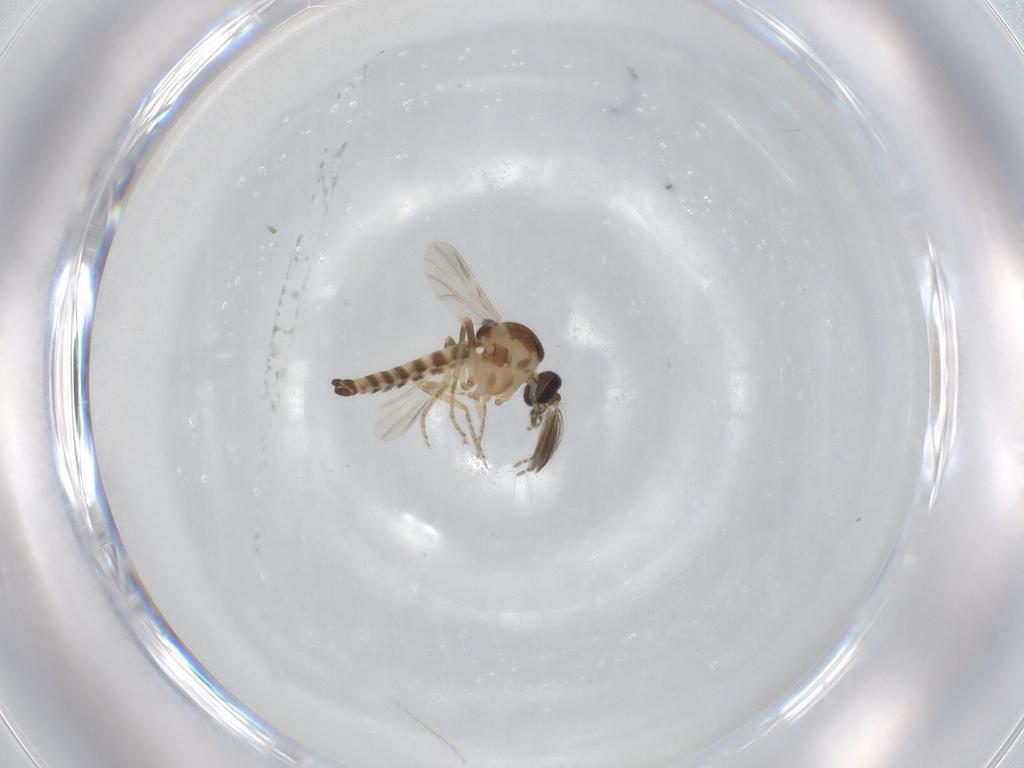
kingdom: Animalia
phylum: Arthropoda
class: Insecta
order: Diptera
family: Ceratopogonidae
